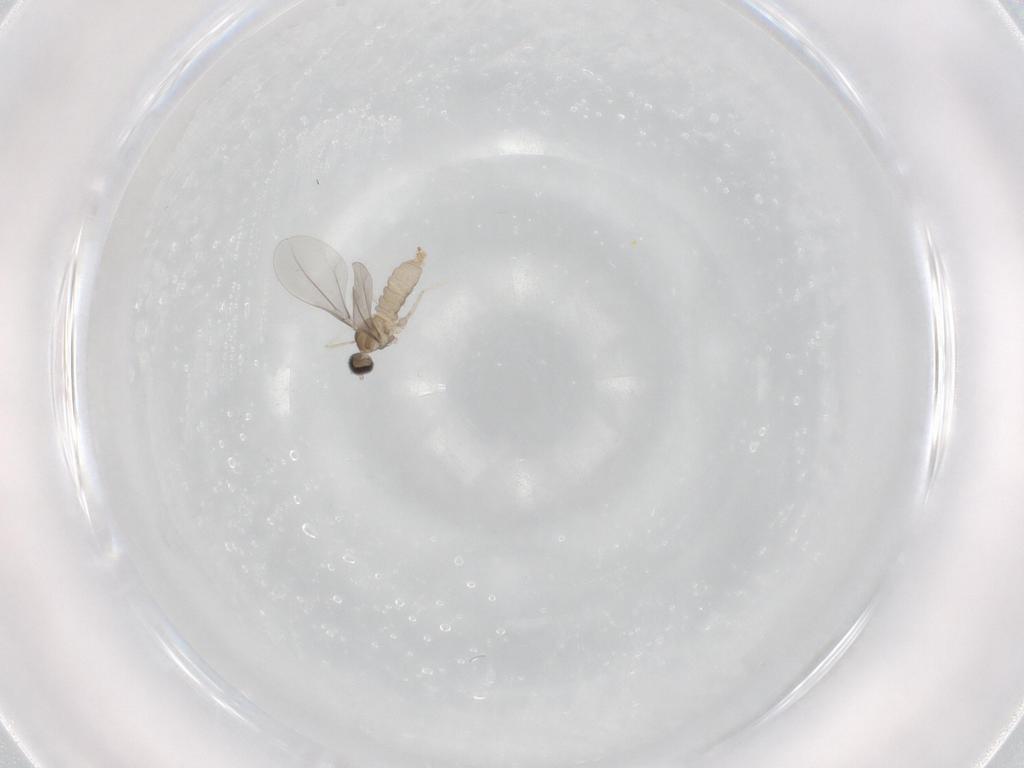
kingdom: Animalia
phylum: Arthropoda
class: Insecta
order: Diptera
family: Cecidomyiidae
